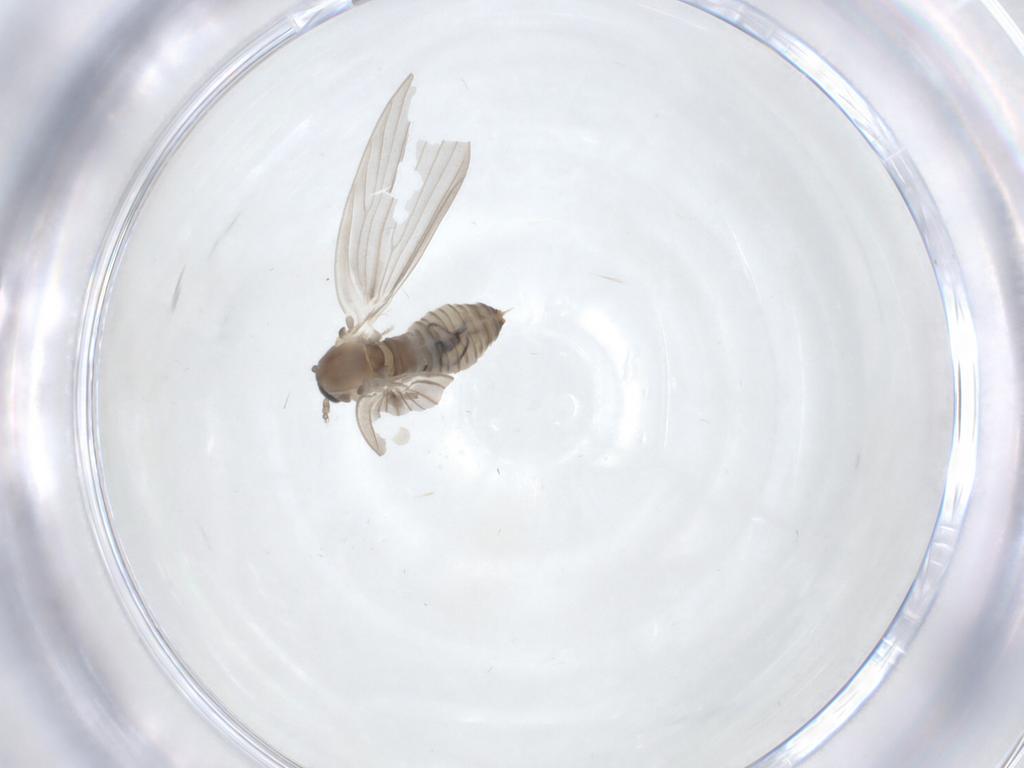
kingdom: Animalia
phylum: Arthropoda
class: Insecta
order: Diptera
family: Psychodidae
